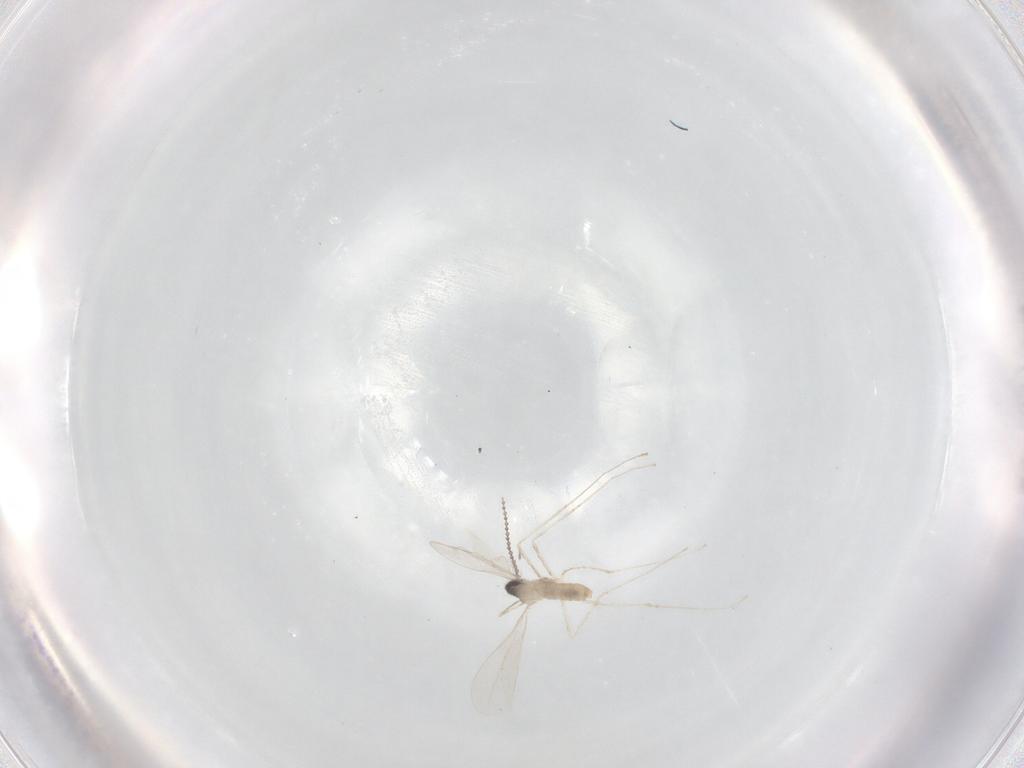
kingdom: Animalia
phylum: Arthropoda
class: Insecta
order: Diptera
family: Cecidomyiidae
